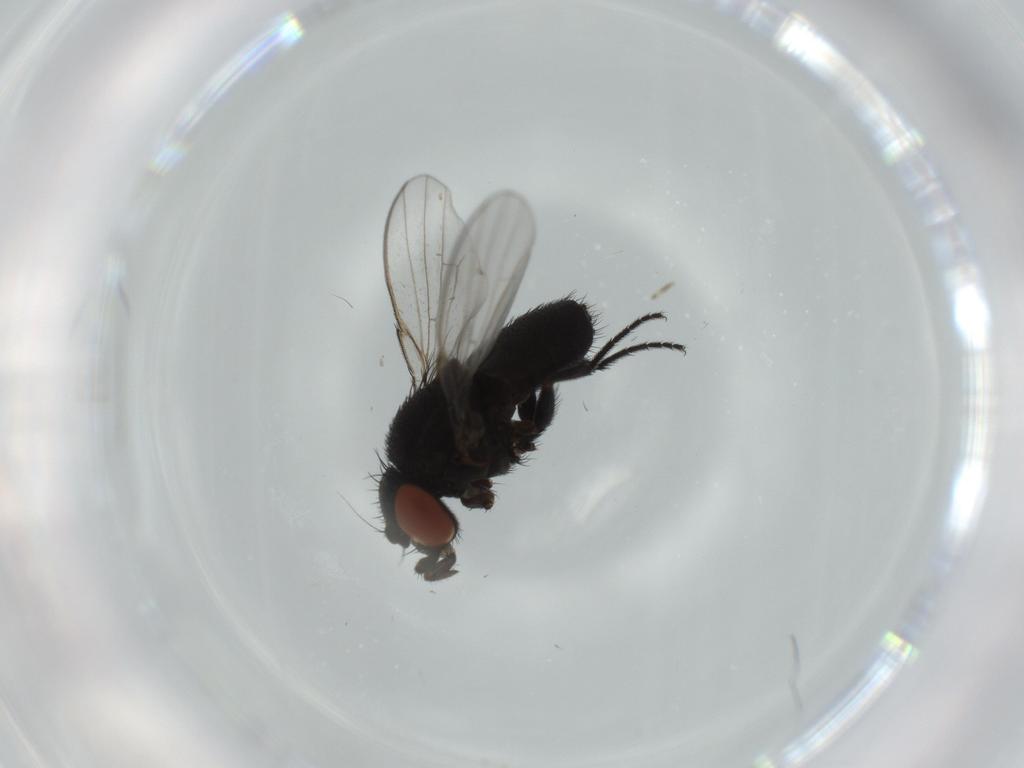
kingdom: Animalia
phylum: Arthropoda
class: Insecta
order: Diptera
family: Milichiidae
